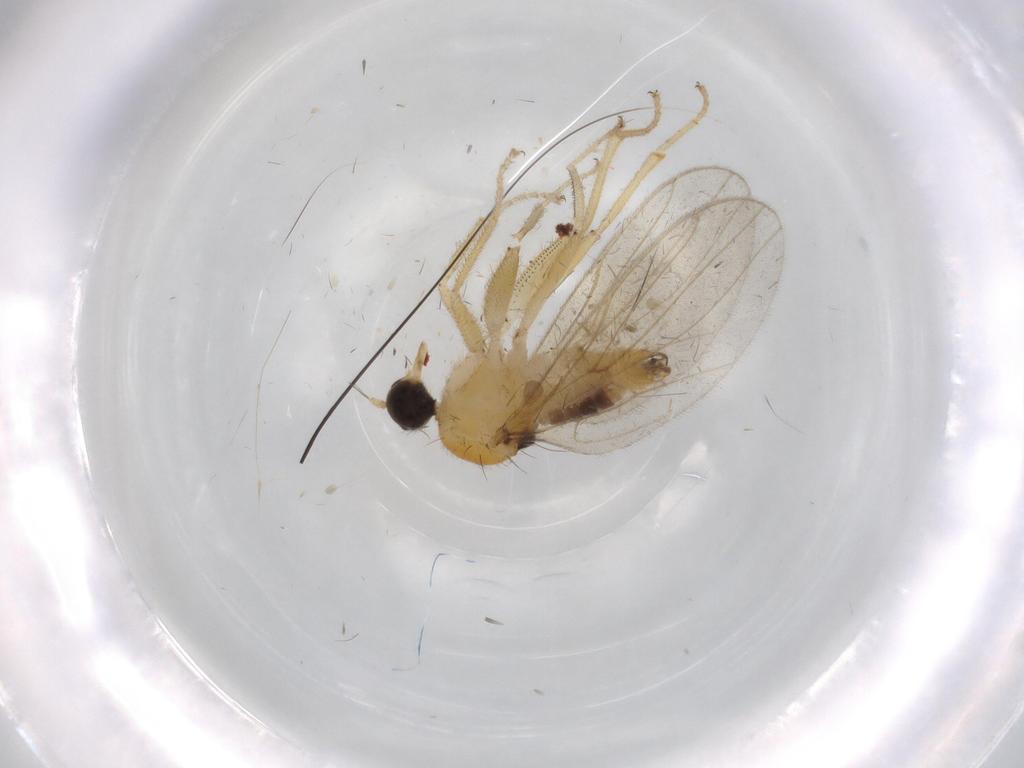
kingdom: Animalia
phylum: Arthropoda
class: Insecta
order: Diptera
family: Hybotidae
